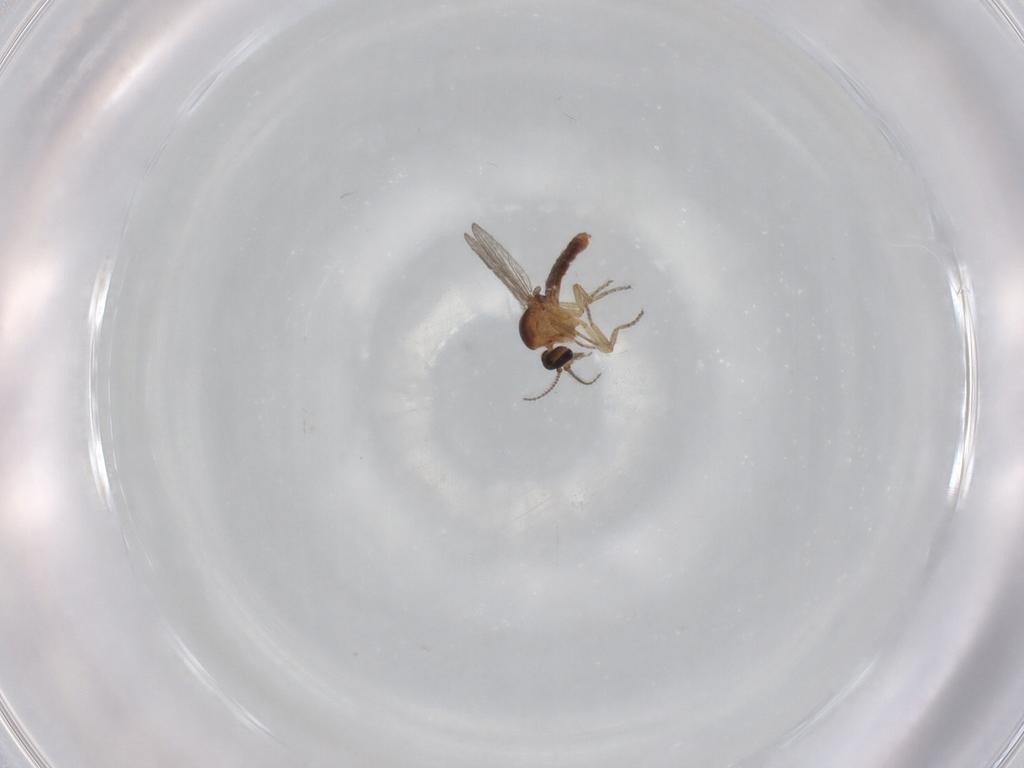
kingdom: Animalia
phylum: Arthropoda
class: Insecta
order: Diptera
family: Ceratopogonidae
